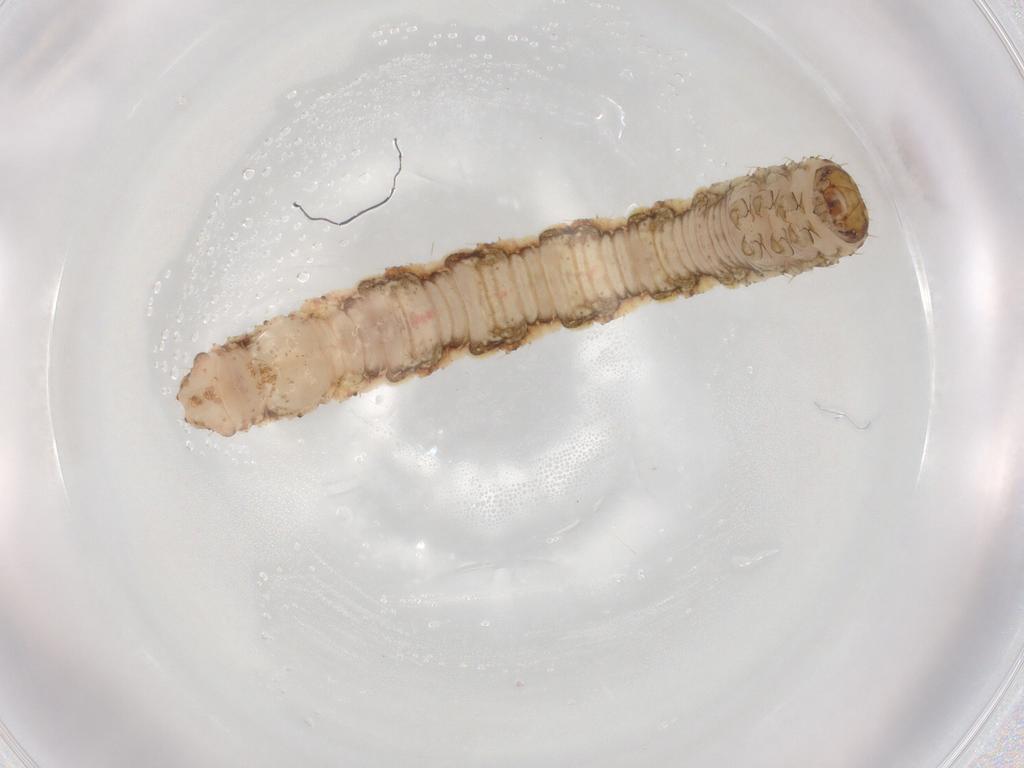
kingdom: Animalia
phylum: Arthropoda
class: Insecta
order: Lepidoptera
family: Geometridae
